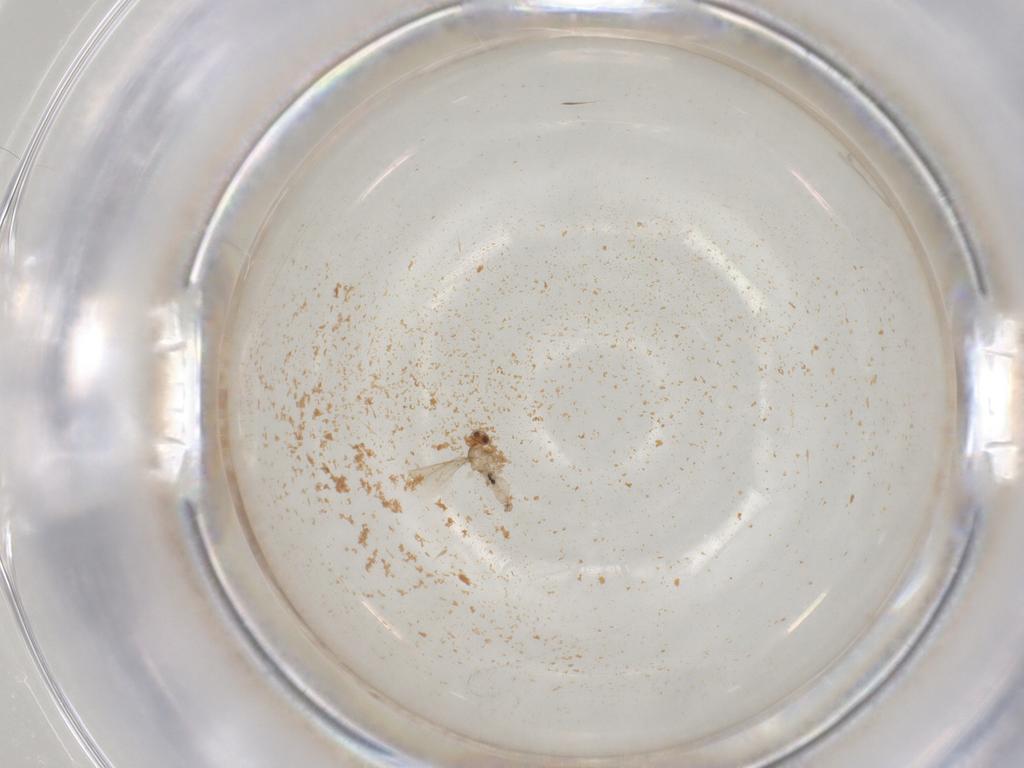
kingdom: Animalia
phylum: Arthropoda
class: Insecta
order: Diptera
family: Cecidomyiidae
